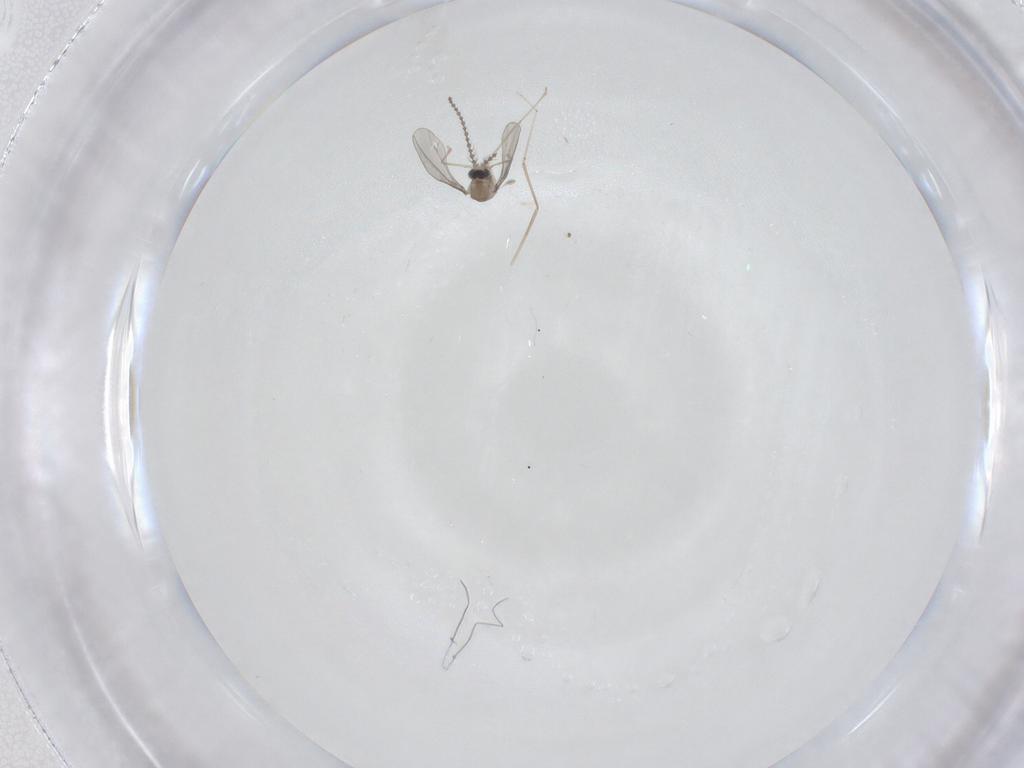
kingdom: Animalia
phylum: Arthropoda
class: Insecta
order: Diptera
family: Cecidomyiidae
